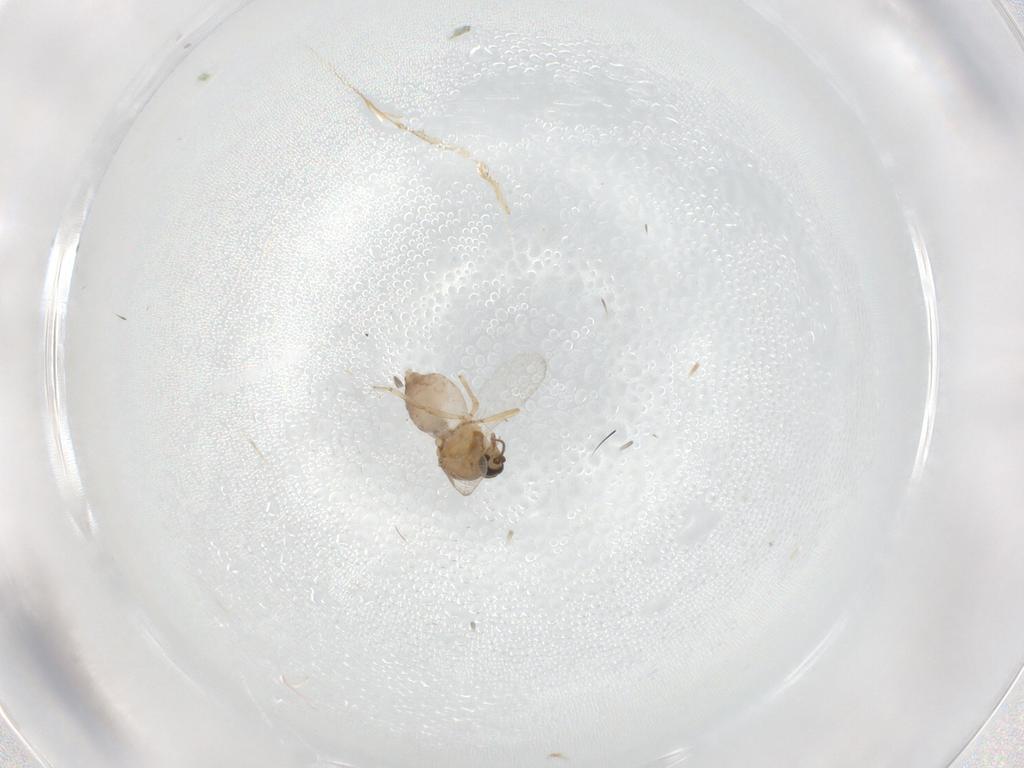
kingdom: Animalia
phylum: Arthropoda
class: Insecta
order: Diptera
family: Ceratopogonidae
